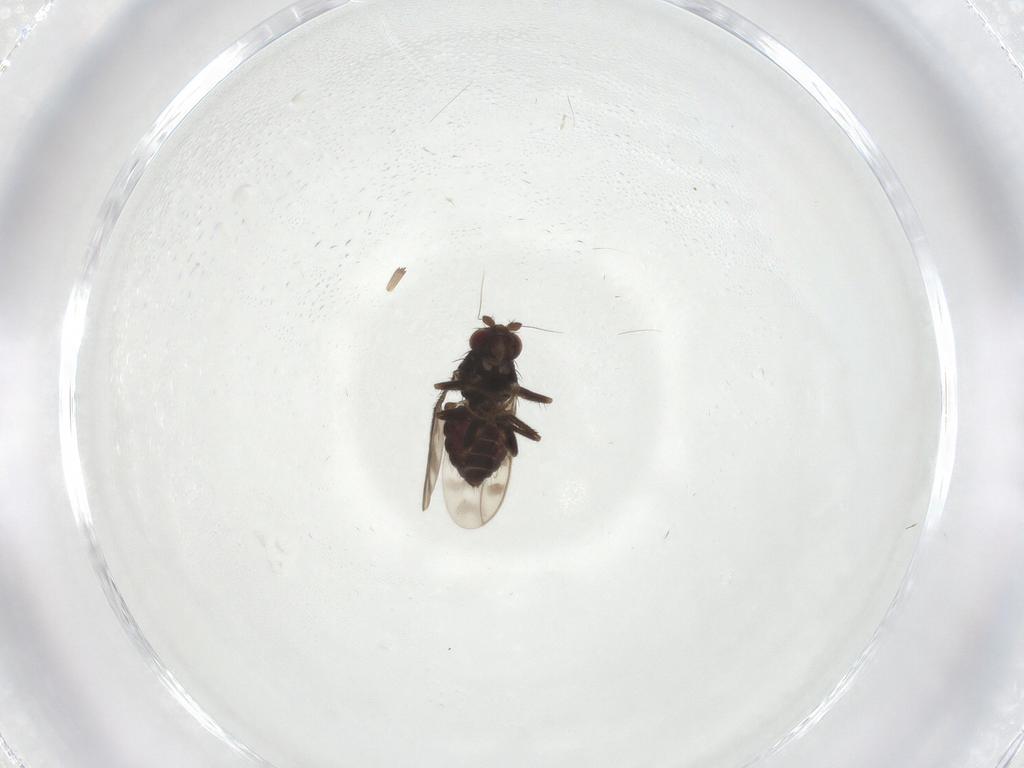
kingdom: Animalia
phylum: Arthropoda
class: Insecta
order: Diptera
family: Sphaeroceridae
